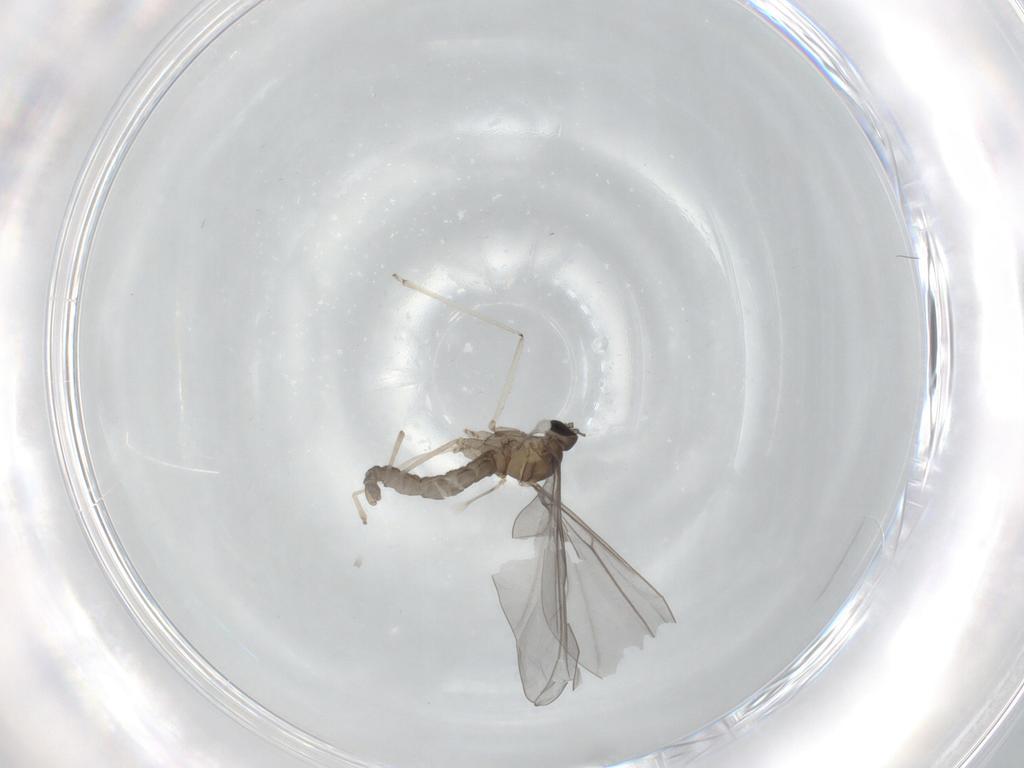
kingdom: Animalia
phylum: Arthropoda
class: Insecta
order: Diptera
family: Cecidomyiidae
